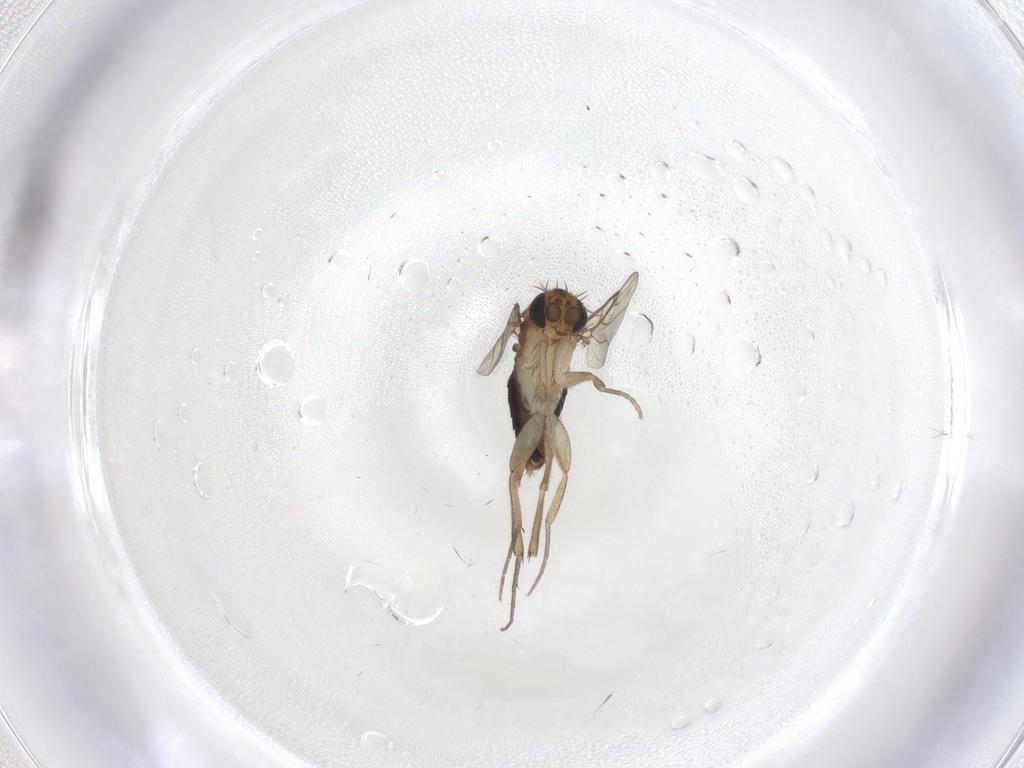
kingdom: Animalia
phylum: Arthropoda
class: Insecta
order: Diptera
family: Phoridae
